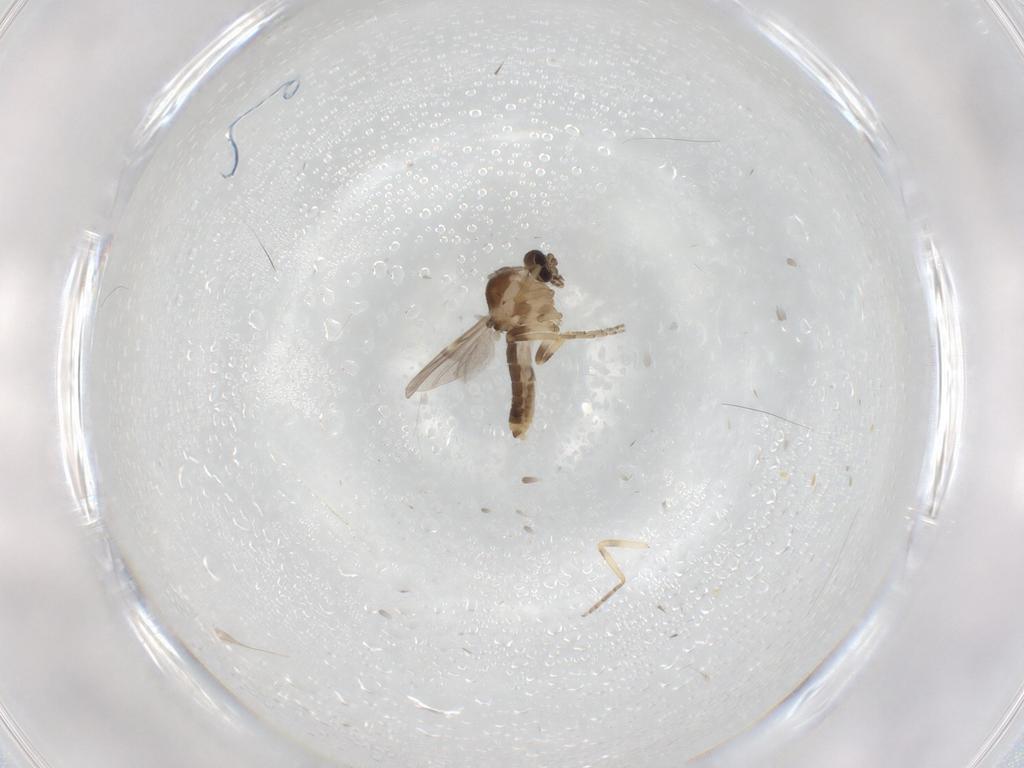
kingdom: Animalia
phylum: Arthropoda
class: Insecta
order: Diptera
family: Ceratopogonidae
